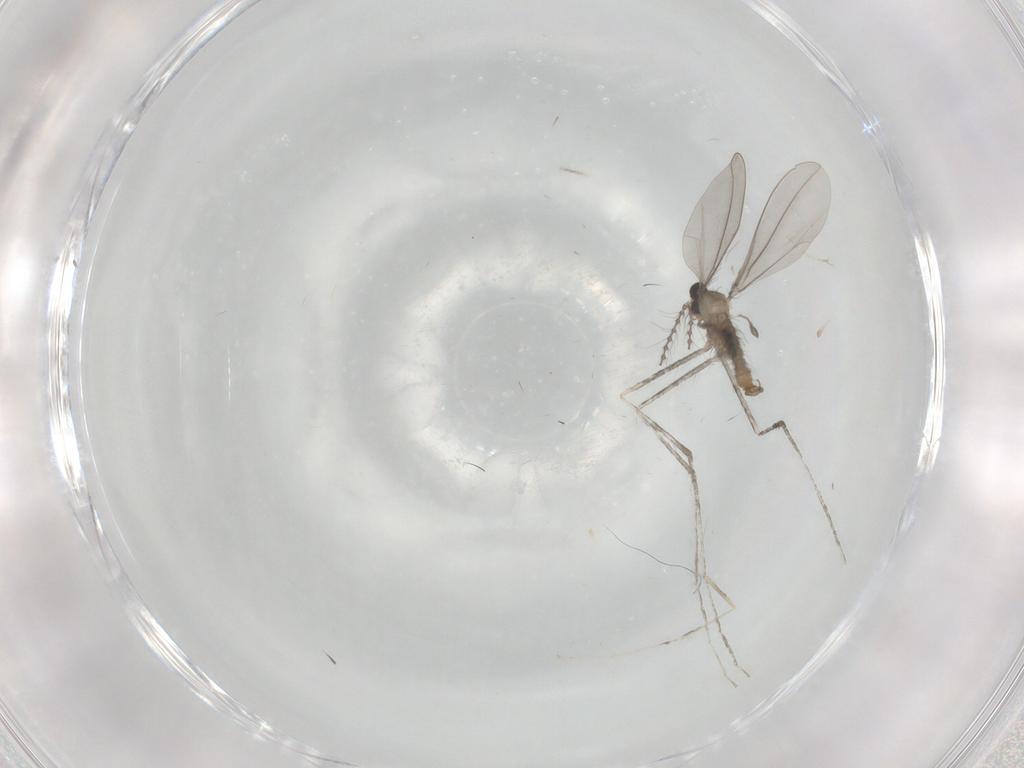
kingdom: Animalia
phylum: Arthropoda
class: Insecta
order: Diptera
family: Cecidomyiidae
